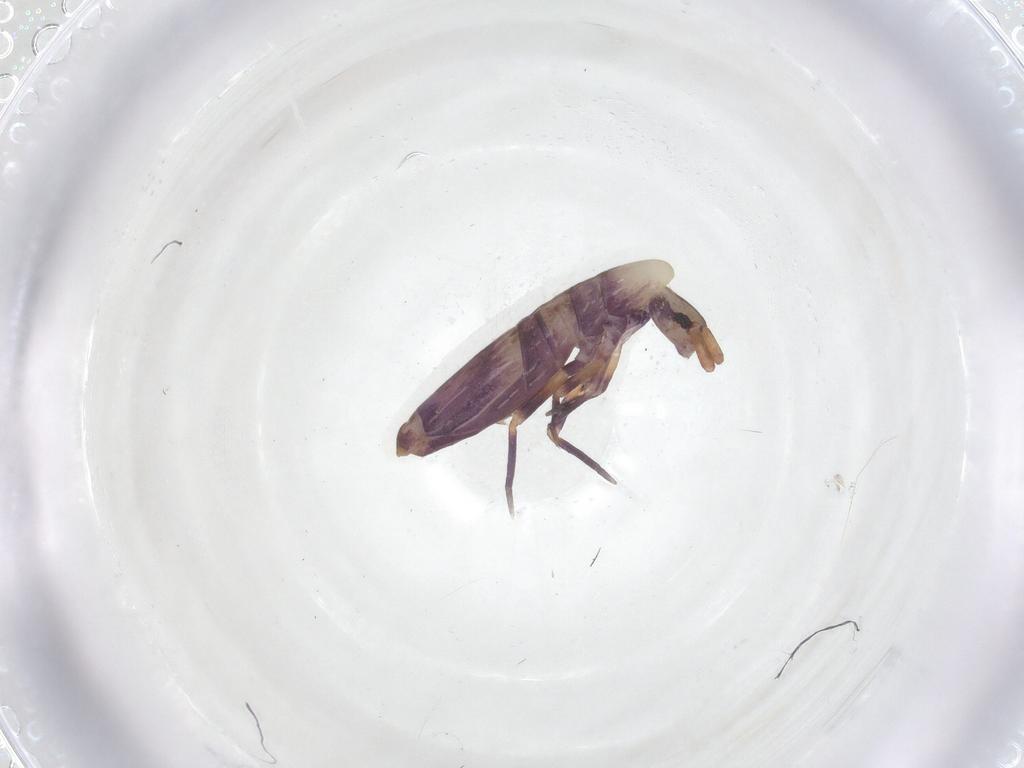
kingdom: Animalia
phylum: Arthropoda
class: Collembola
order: Entomobryomorpha
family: Entomobryidae
